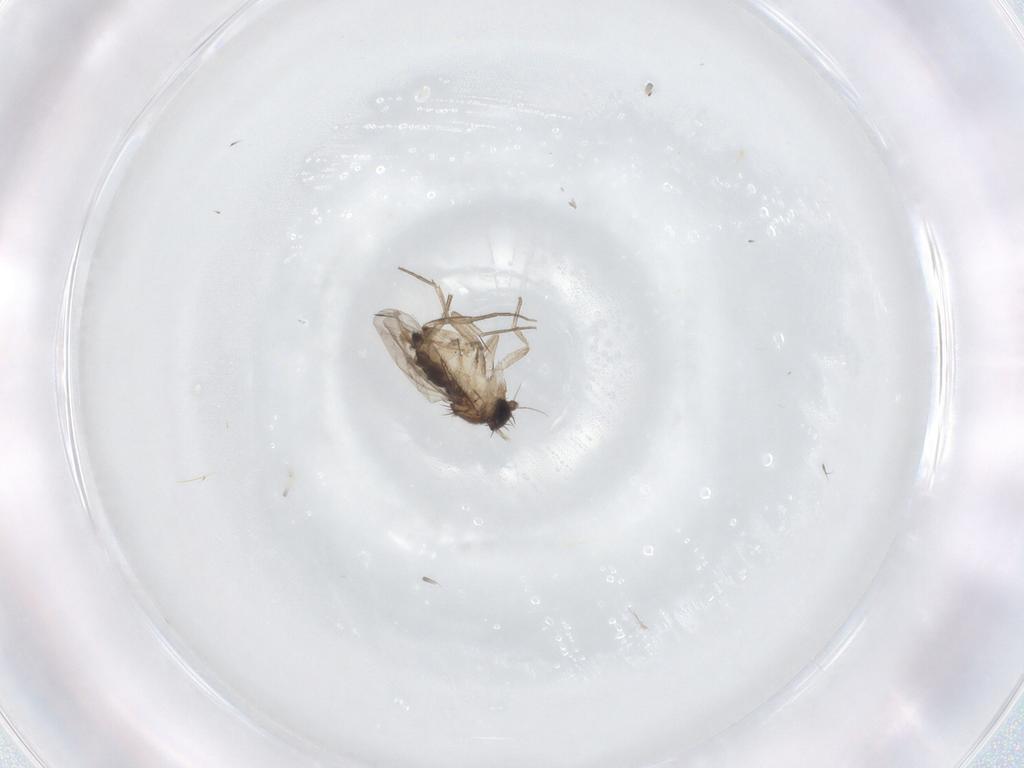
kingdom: Animalia
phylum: Arthropoda
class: Insecta
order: Diptera
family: Phoridae
